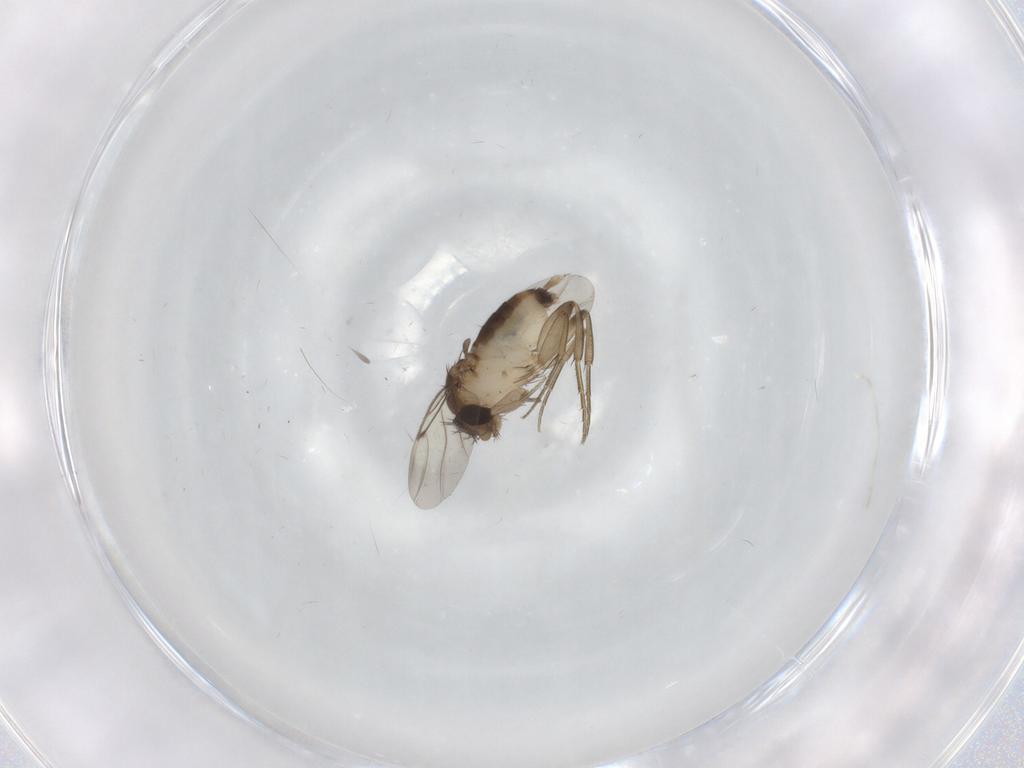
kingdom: Animalia
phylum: Arthropoda
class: Insecta
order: Diptera
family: Phoridae
